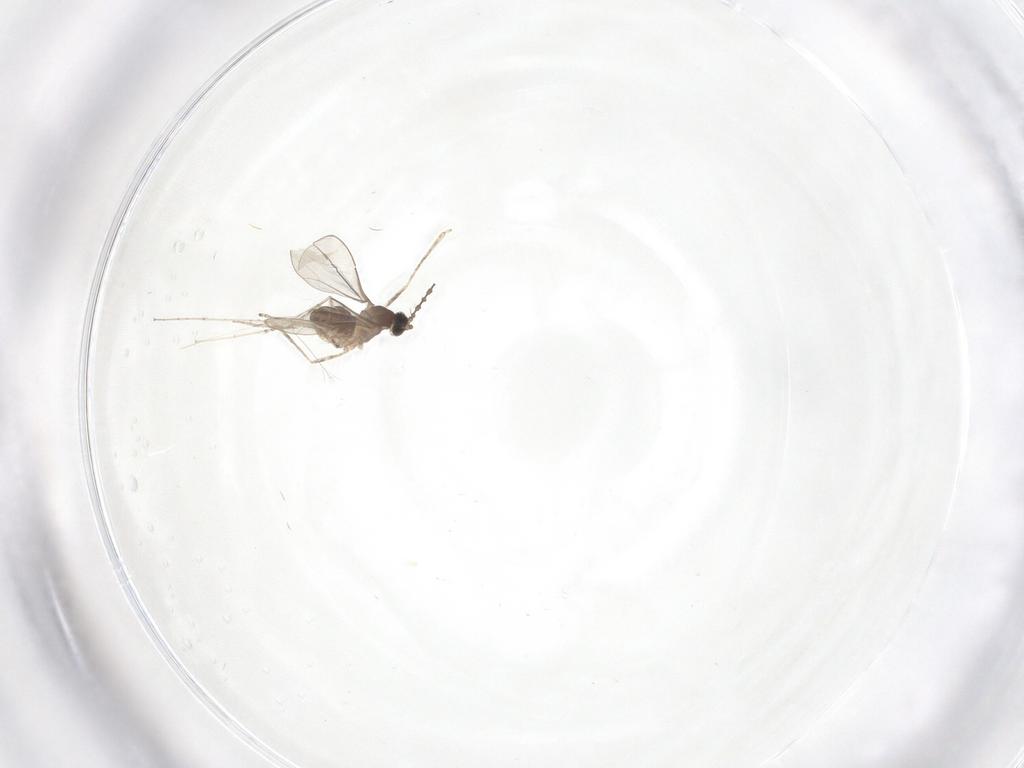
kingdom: Animalia
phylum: Arthropoda
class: Insecta
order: Diptera
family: Cecidomyiidae
